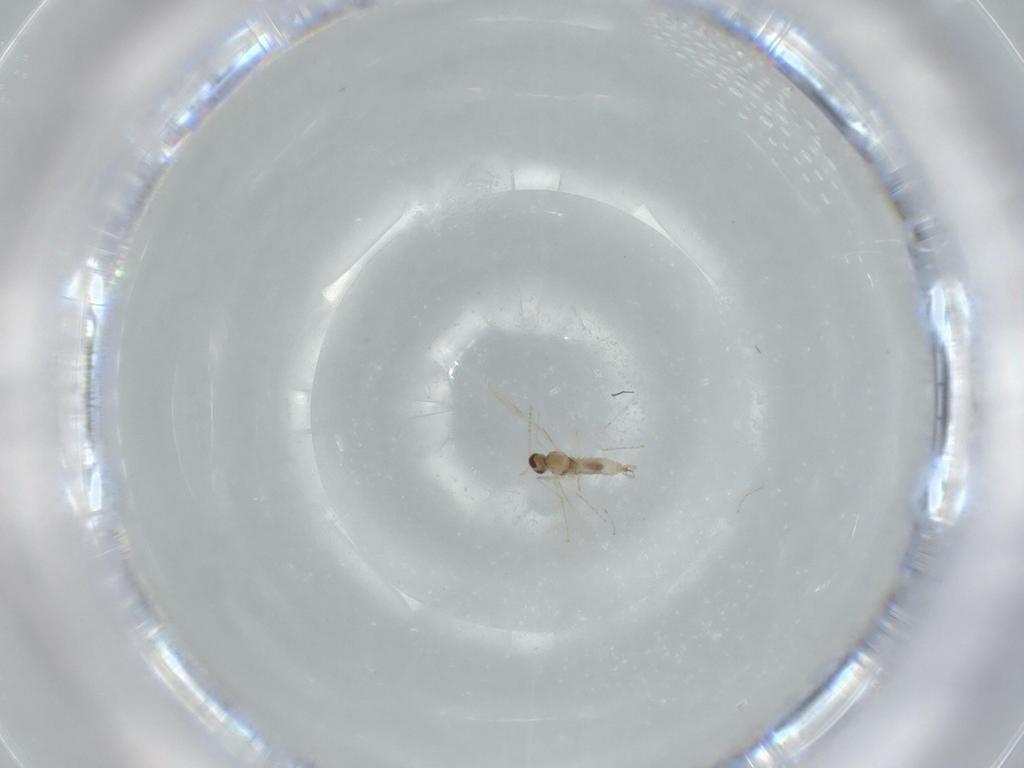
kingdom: Animalia
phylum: Arthropoda
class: Insecta
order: Diptera
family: Cecidomyiidae
